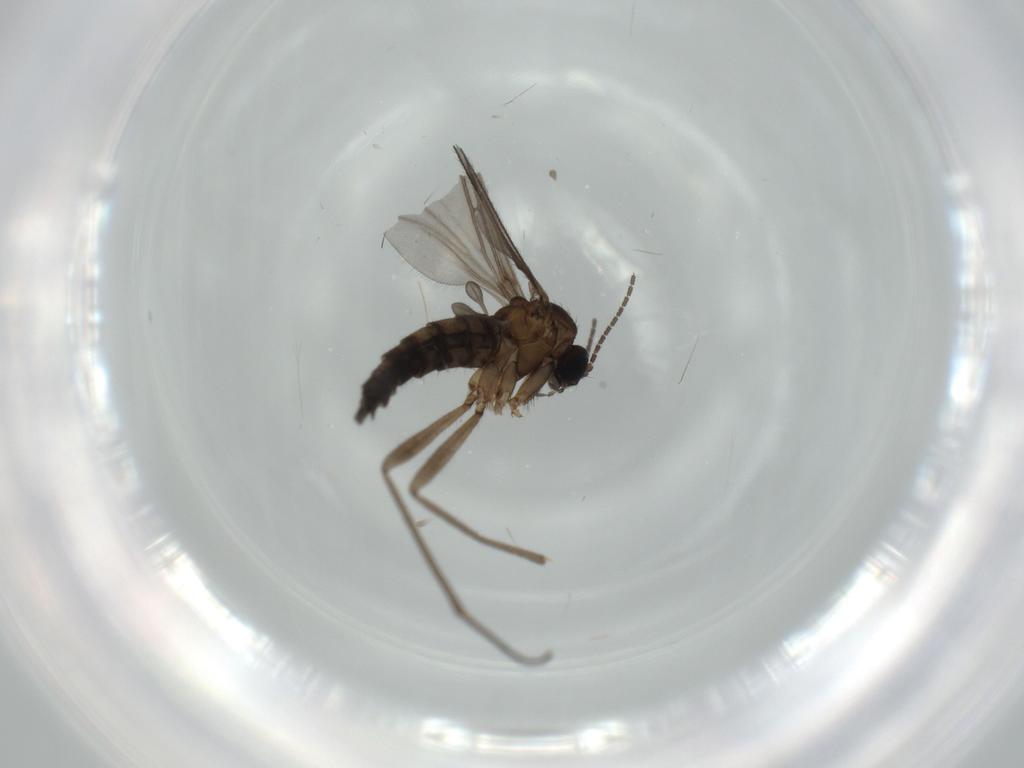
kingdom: Animalia
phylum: Arthropoda
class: Insecta
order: Diptera
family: Sciaridae
